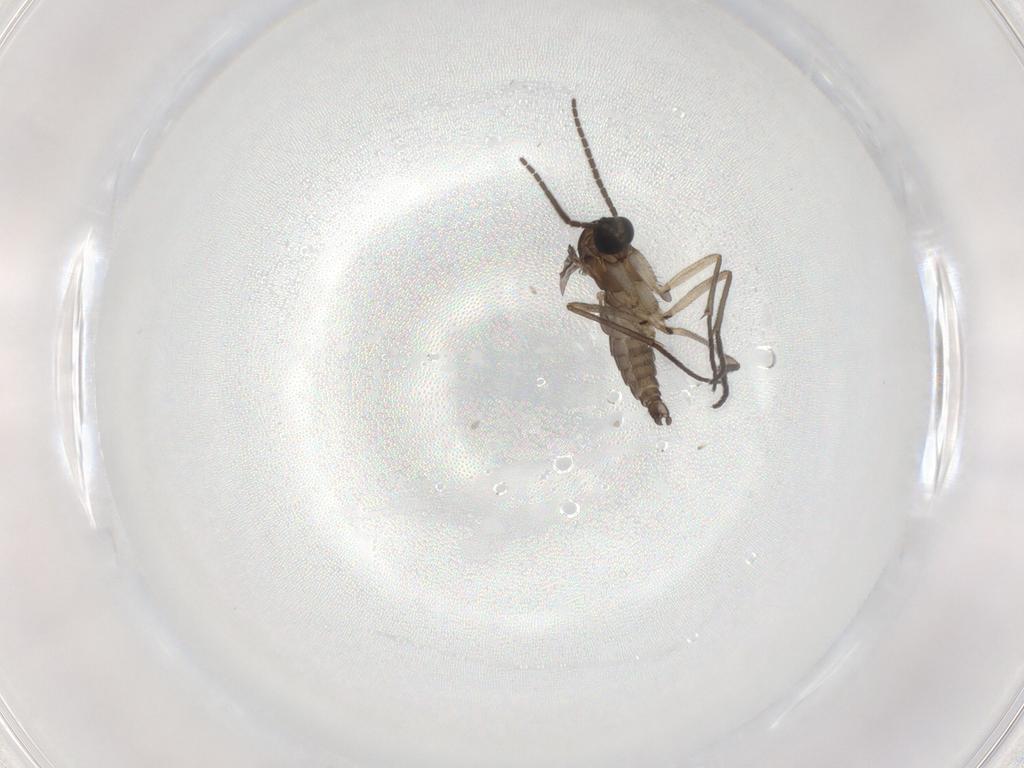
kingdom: Animalia
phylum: Arthropoda
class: Insecta
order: Diptera
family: Sciaridae
